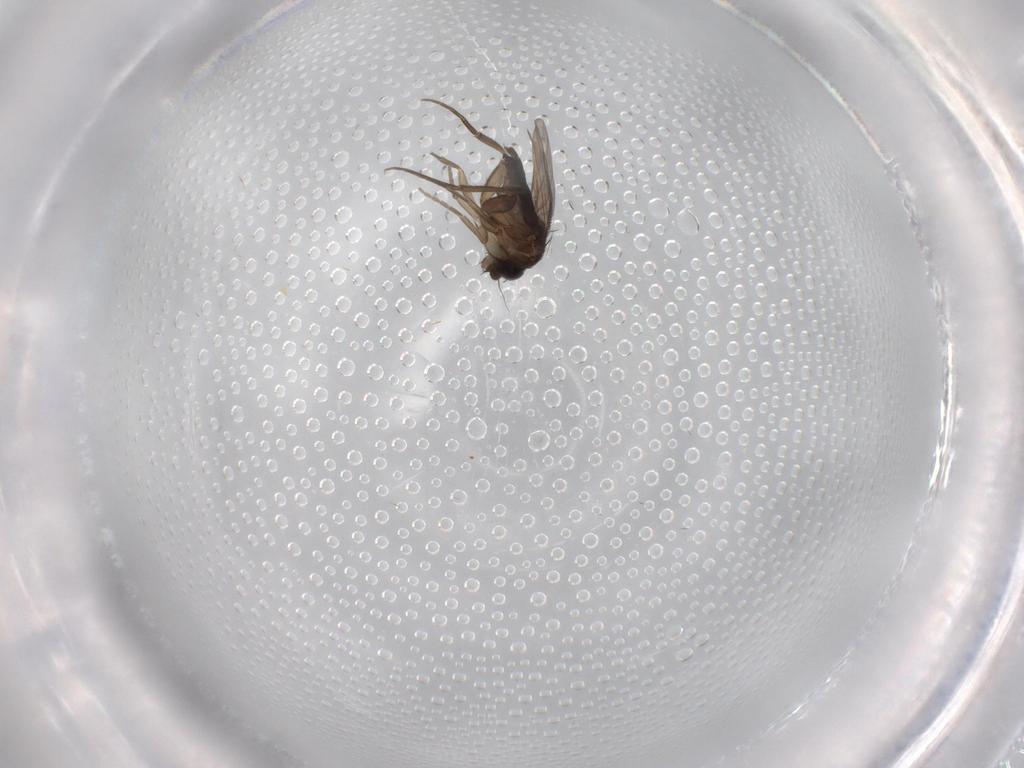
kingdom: Animalia
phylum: Arthropoda
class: Insecta
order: Diptera
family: Phoridae
